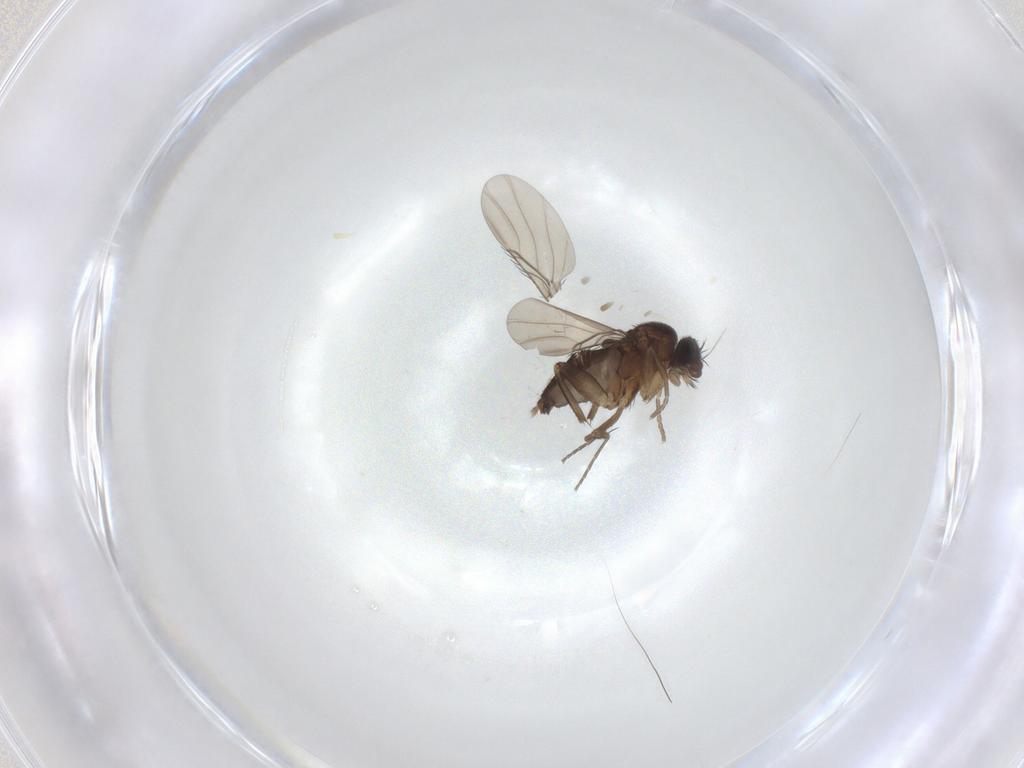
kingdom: Animalia
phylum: Arthropoda
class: Insecta
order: Diptera
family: Phoridae
